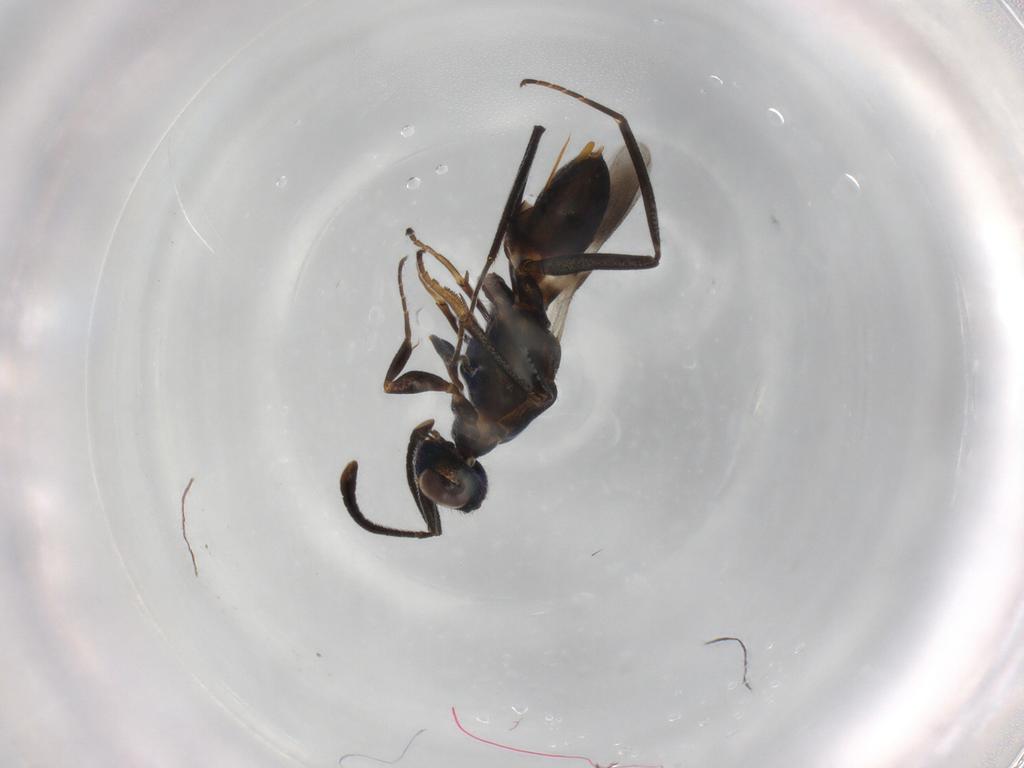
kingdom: Animalia
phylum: Arthropoda
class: Insecta
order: Hymenoptera
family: Eupelmidae
